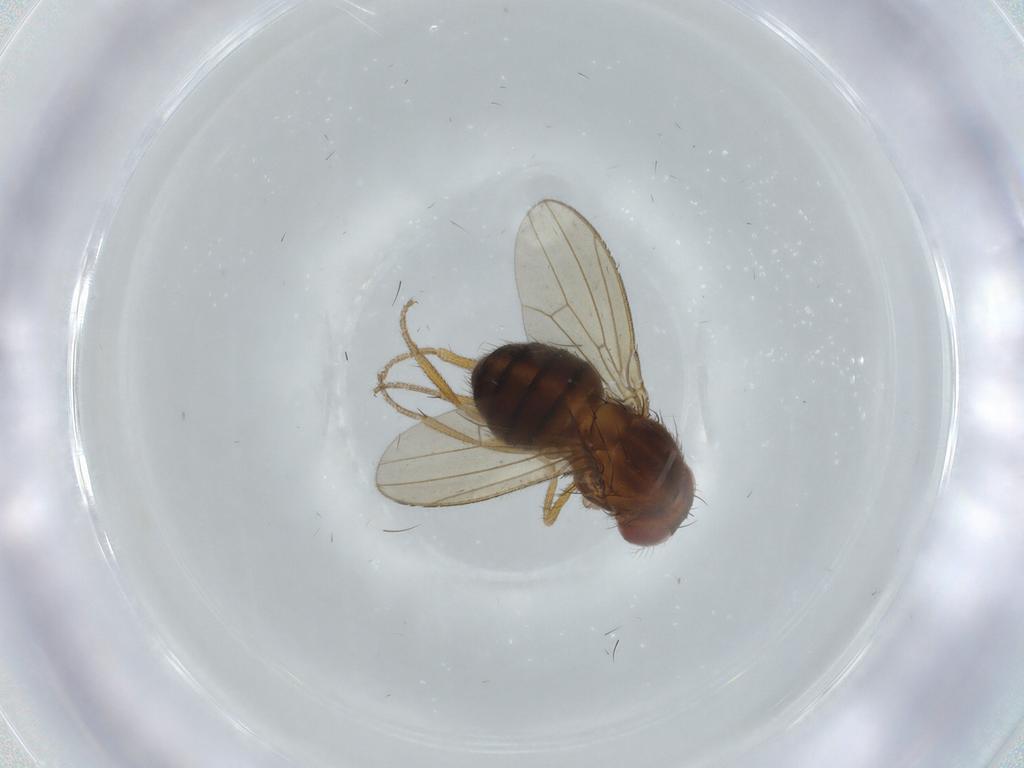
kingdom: Animalia
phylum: Arthropoda
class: Insecta
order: Diptera
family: Drosophilidae
